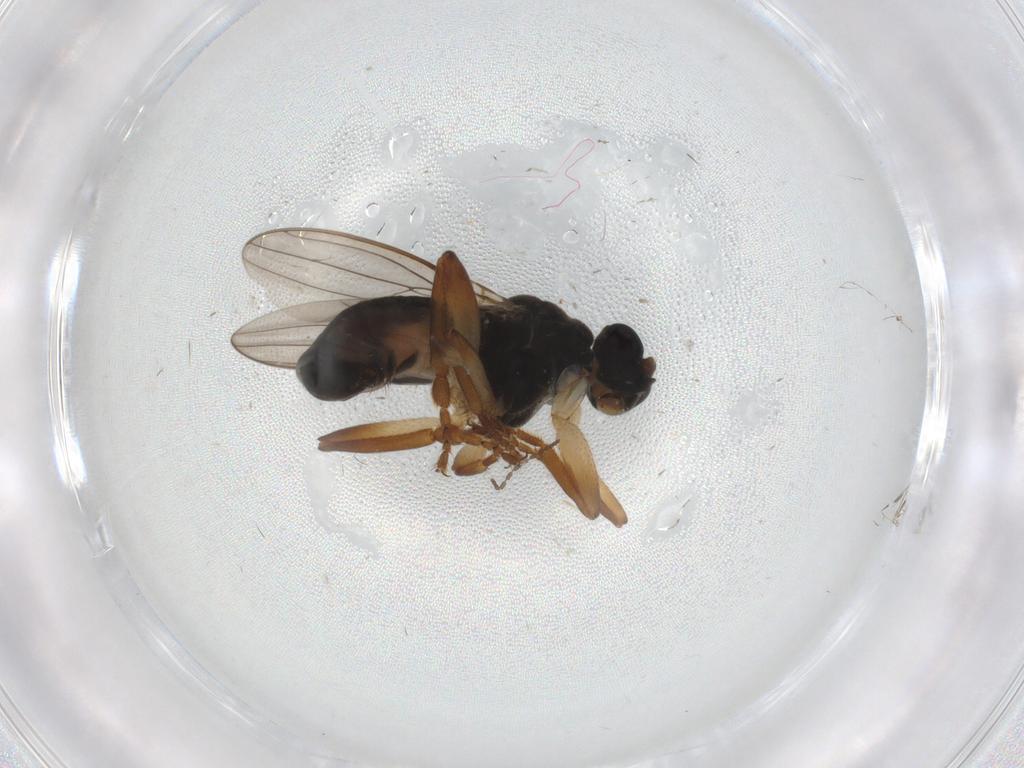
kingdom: Animalia
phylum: Arthropoda
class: Insecta
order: Diptera
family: Sphaeroceridae
